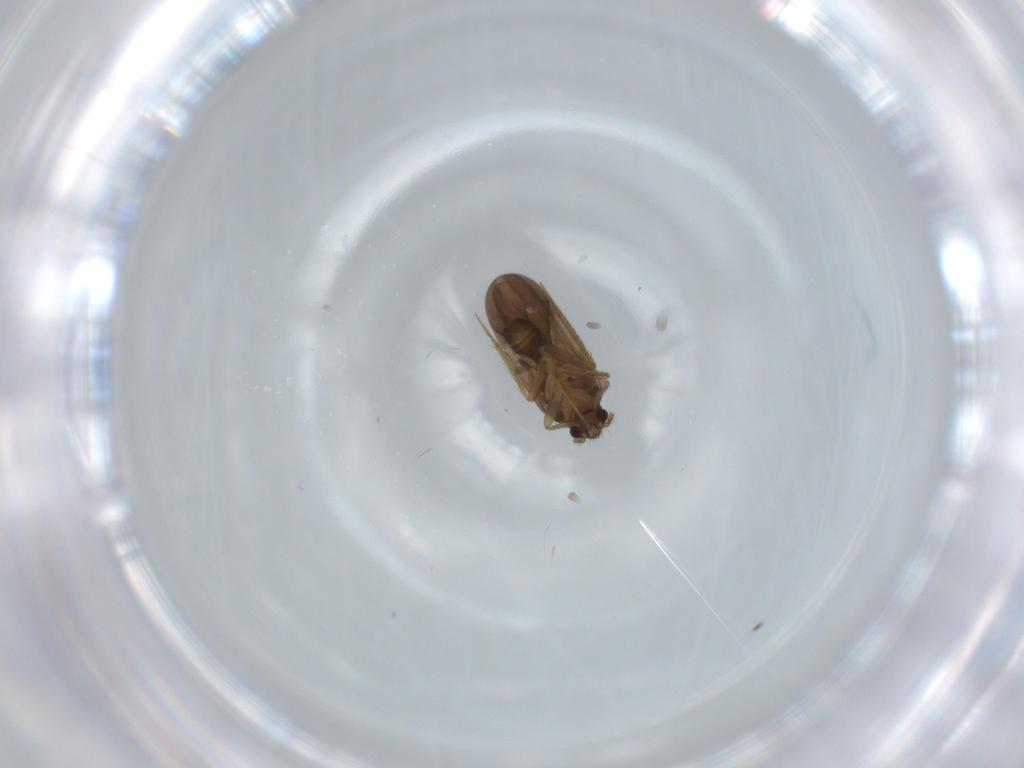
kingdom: Animalia
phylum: Arthropoda
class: Insecta
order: Hemiptera
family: Ceratocombidae
